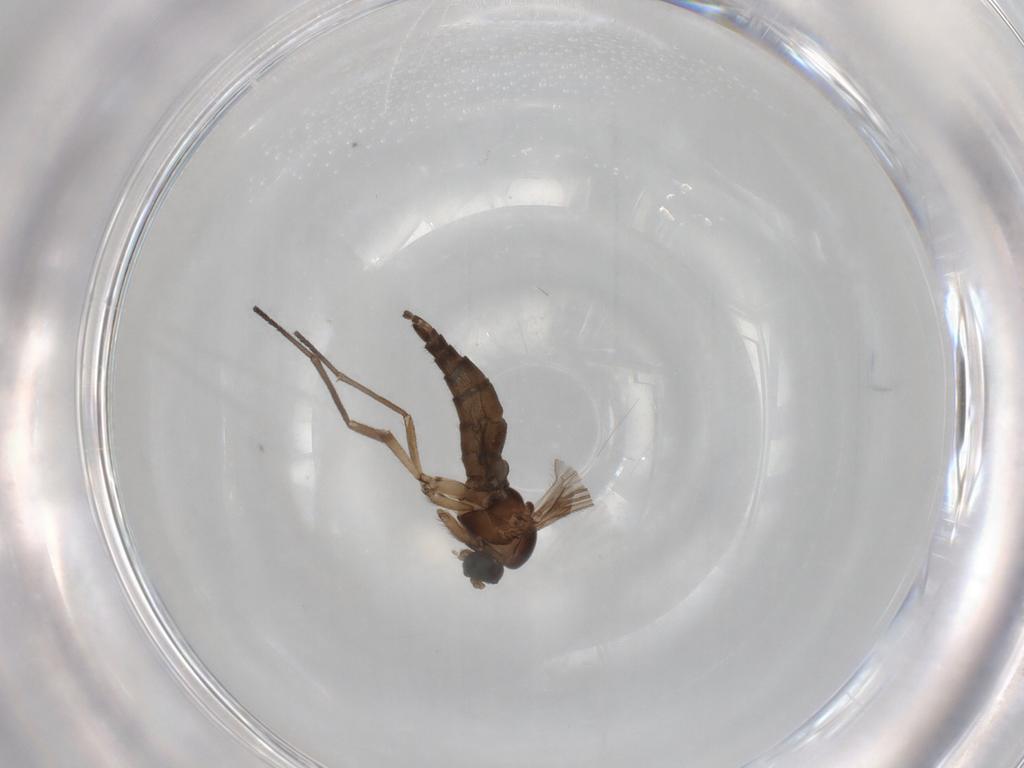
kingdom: Animalia
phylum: Arthropoda
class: Insecta
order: Diptera
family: Sciaridae
